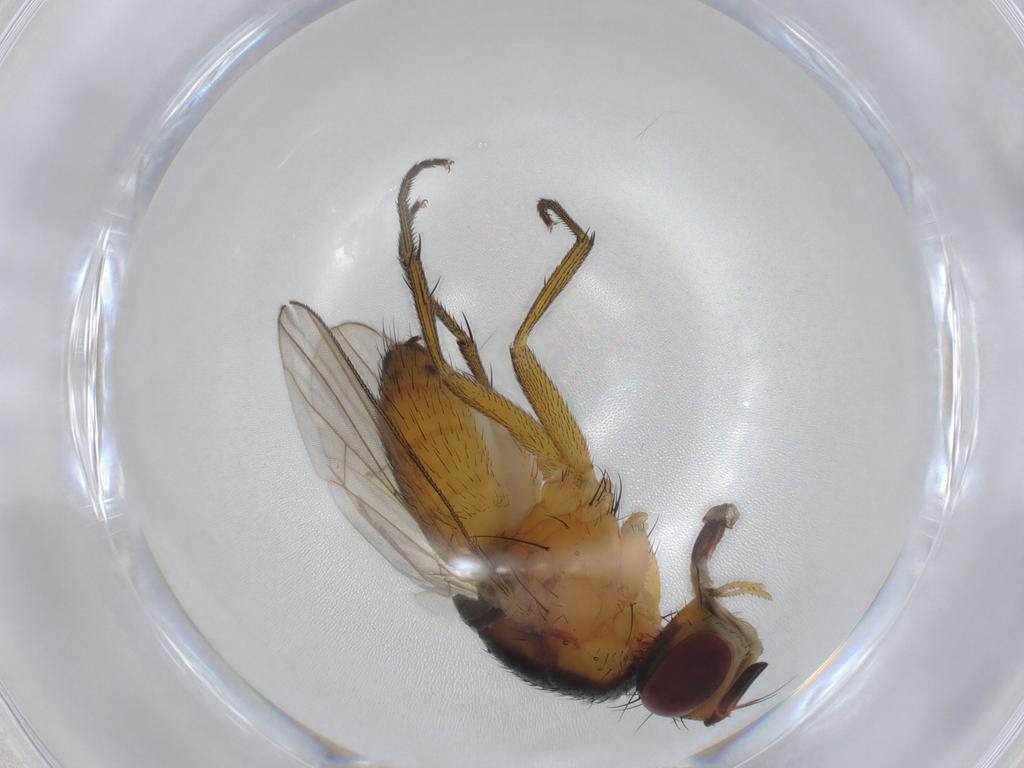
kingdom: Animalia
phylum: Arthropoda
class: Insecta
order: Diptera
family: Muscidae
